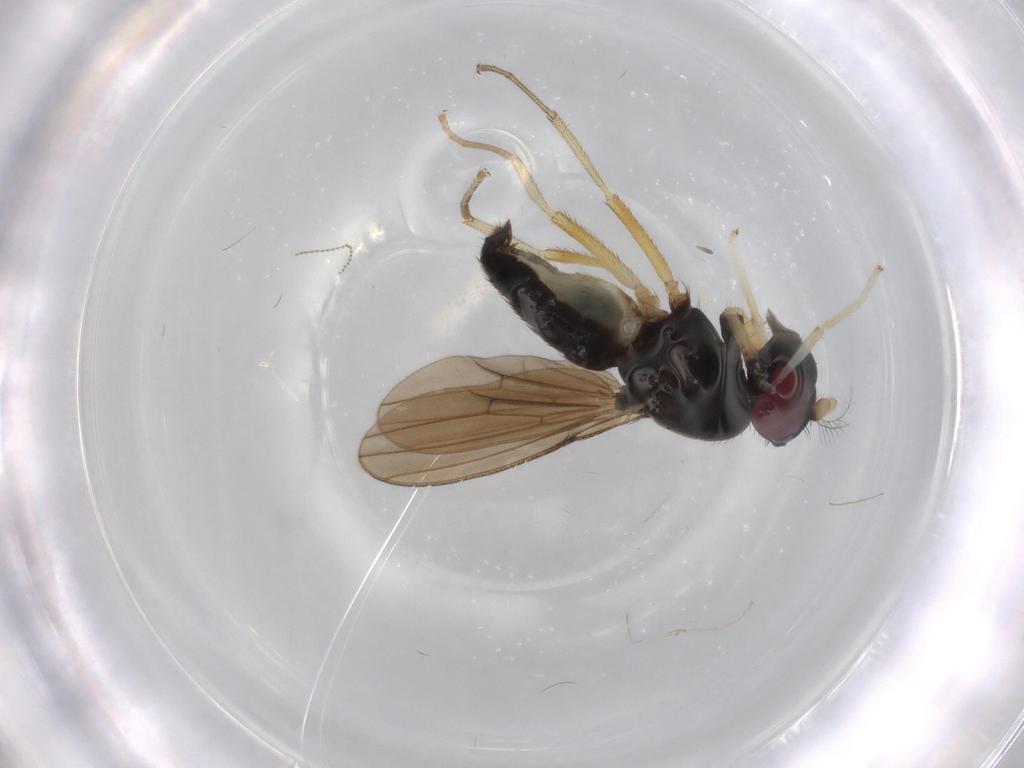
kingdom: Animalia
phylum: Arthropoda
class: Insecta
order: Diptera
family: Lauxaniidae
